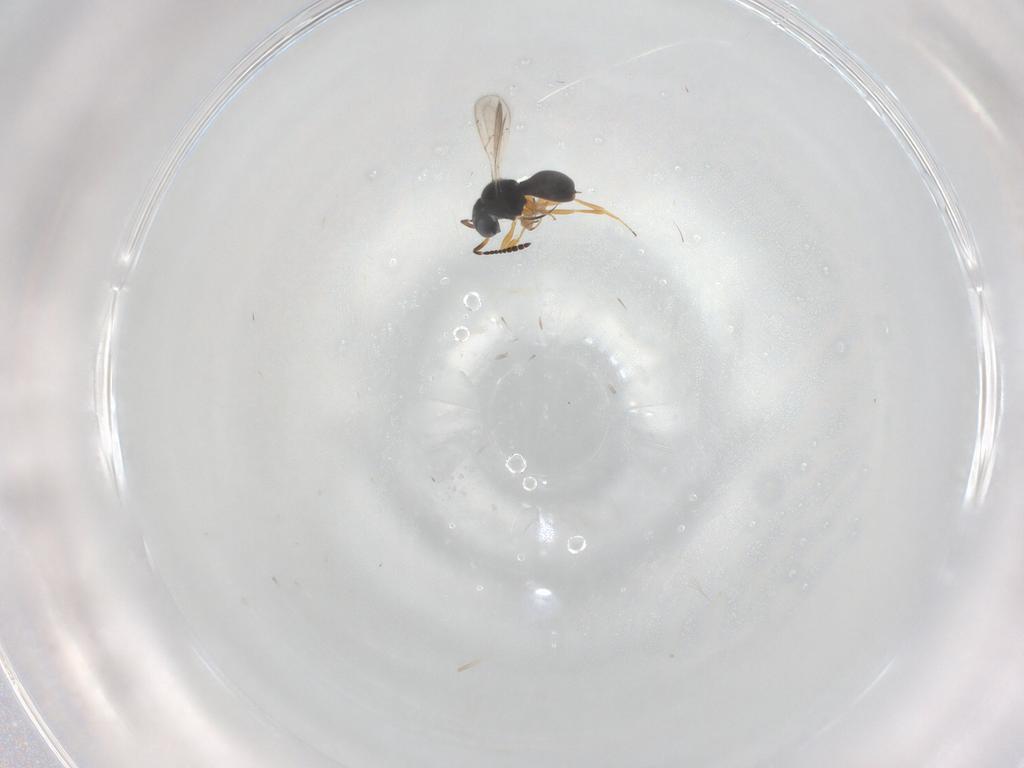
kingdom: Animalia
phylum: Arthropoda
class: Insecta
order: Hymenoptera
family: Scelionidae
